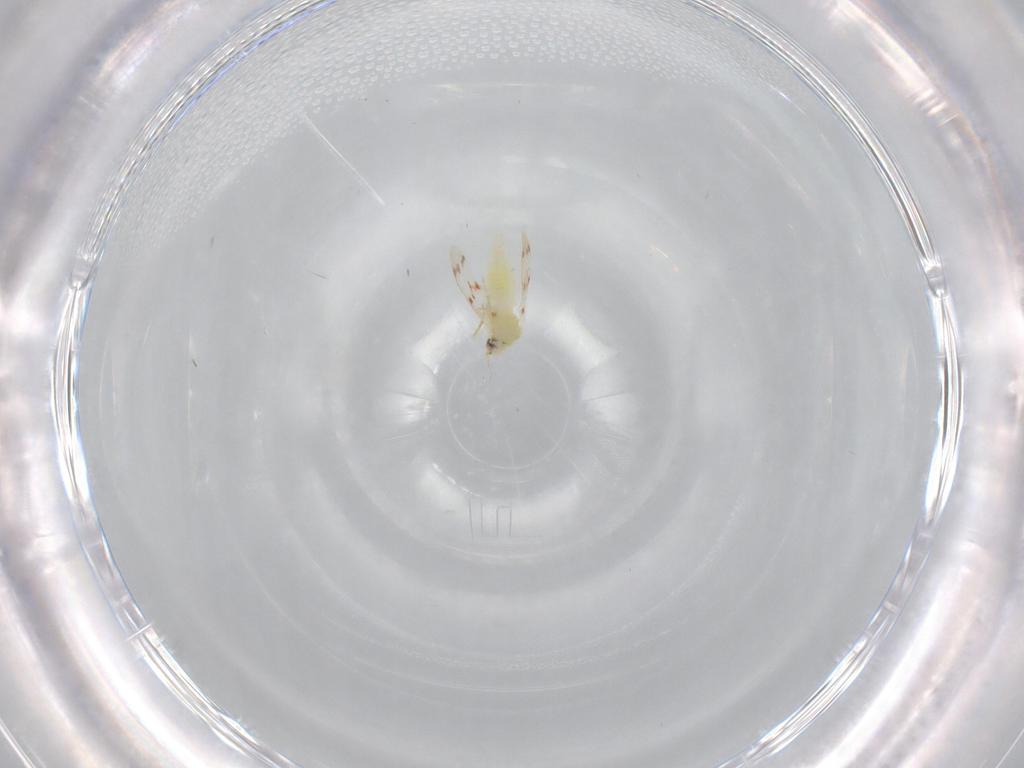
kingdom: Animalia
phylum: Arthropoda
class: Insecta
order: Hemiptera
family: Aleyrodidae
